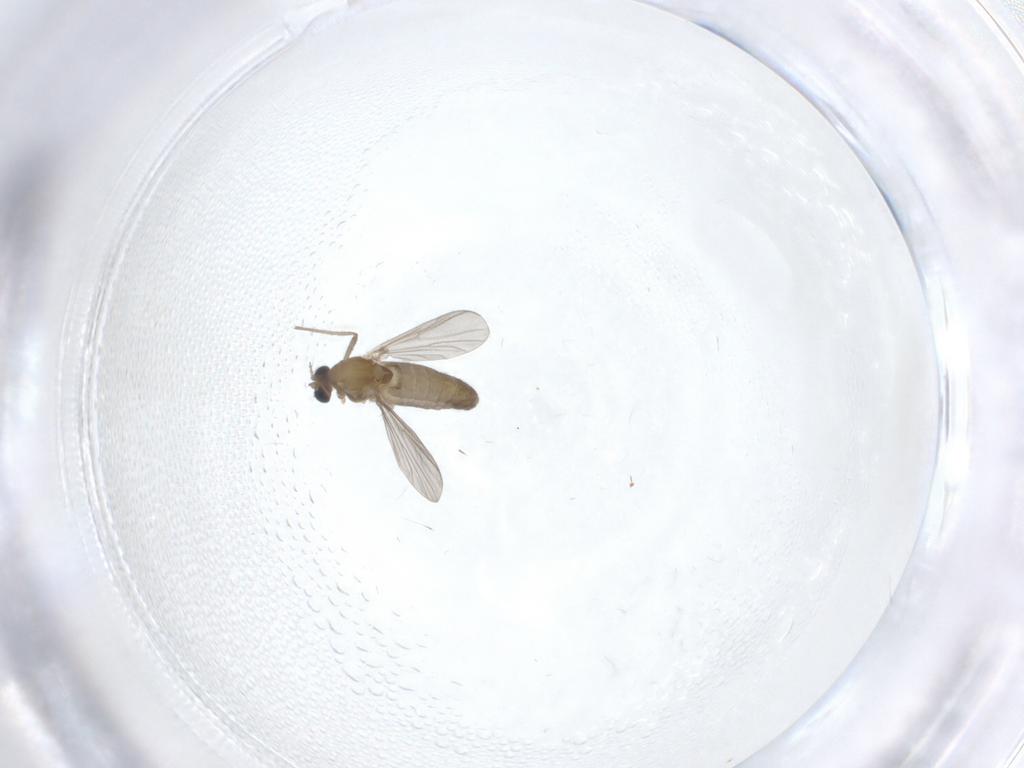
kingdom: Animalia
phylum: Arthropoda
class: Insecta
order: Diptera
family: Chironomidae
